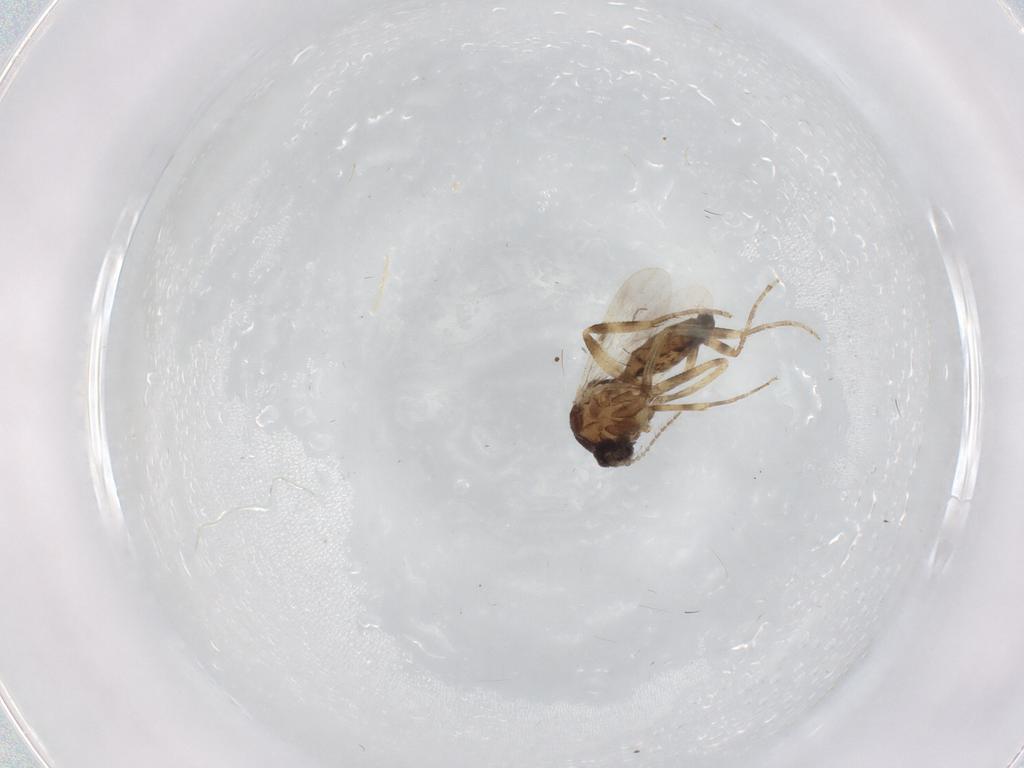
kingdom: Animalia
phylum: Arthropoda
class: Insecta
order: Diptera
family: Ceratopogonidae
